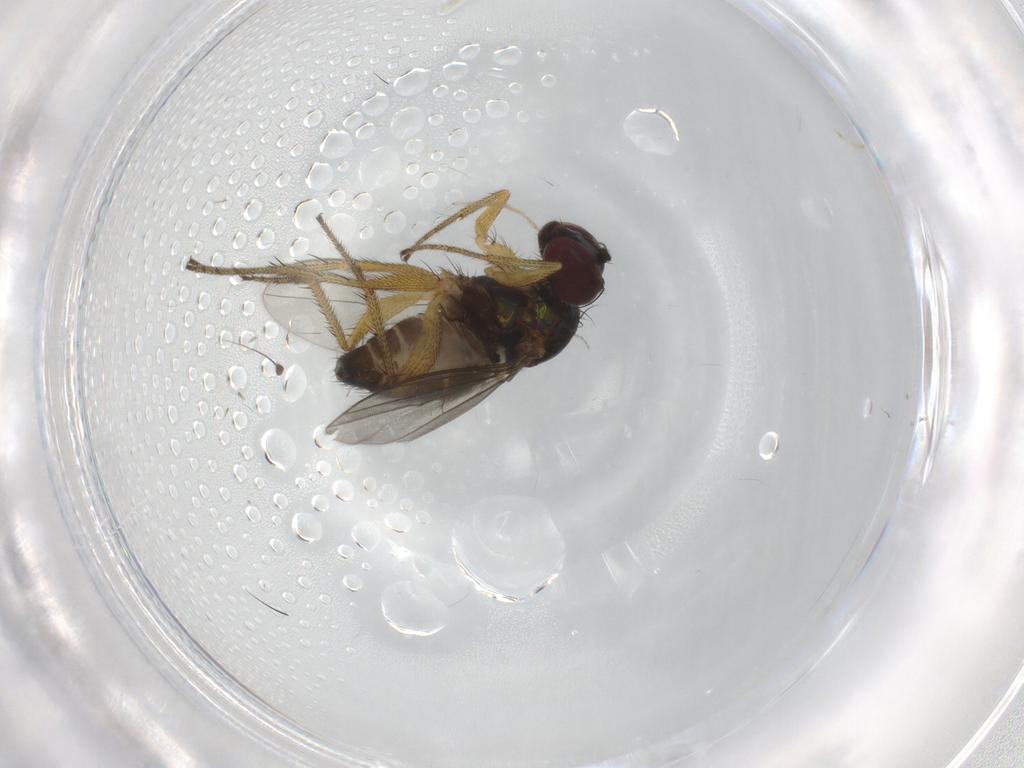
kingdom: Animalia
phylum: Arthropoda
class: Insecta
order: Diptera
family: Cecidomyiidae
